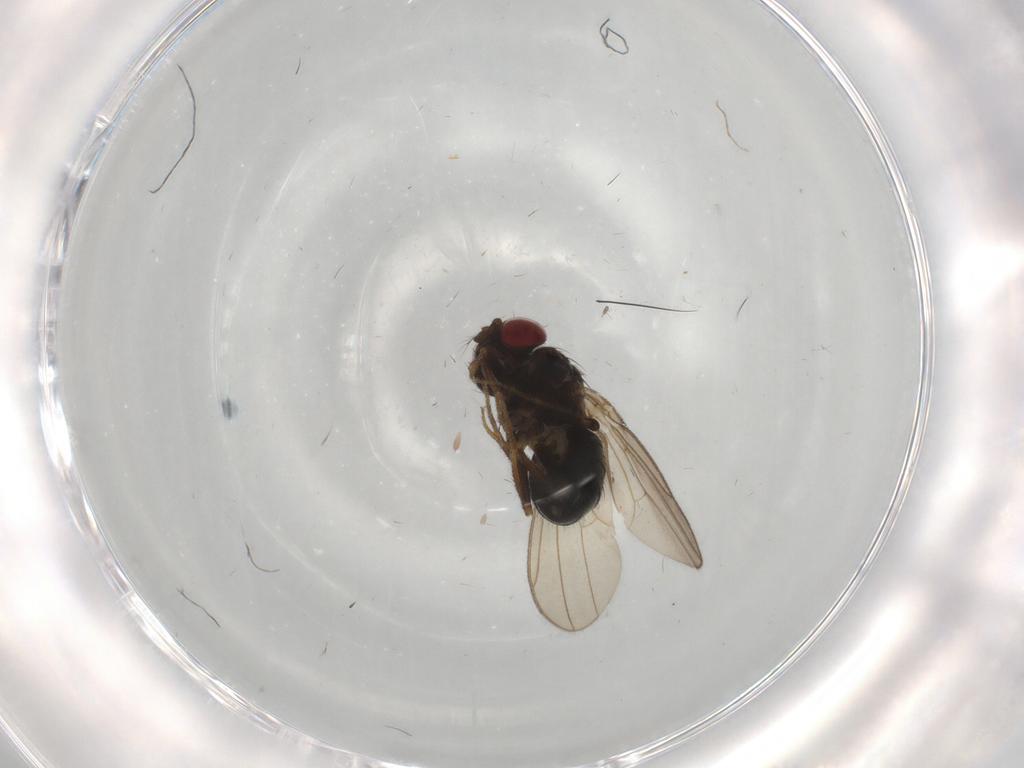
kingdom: Animalia
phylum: Arthropoda
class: Insecta
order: Diptera
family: Cecidomyiidae
